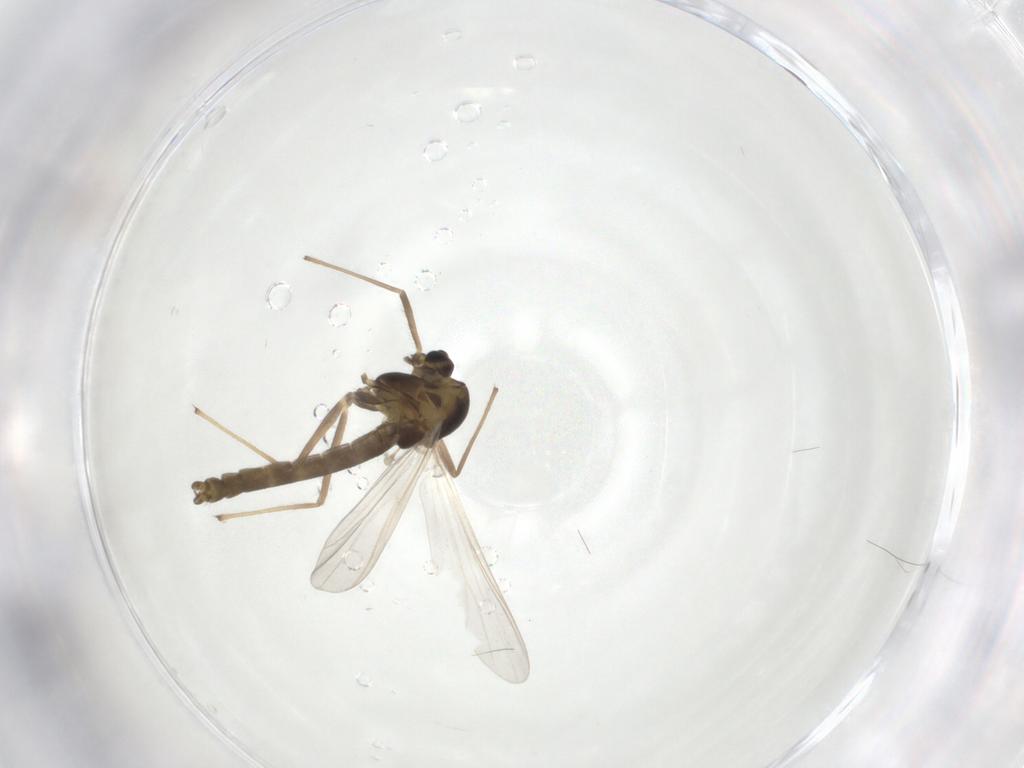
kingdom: Animalia
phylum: Arthropoda
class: Insecta
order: Diptera
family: Chironomidae
